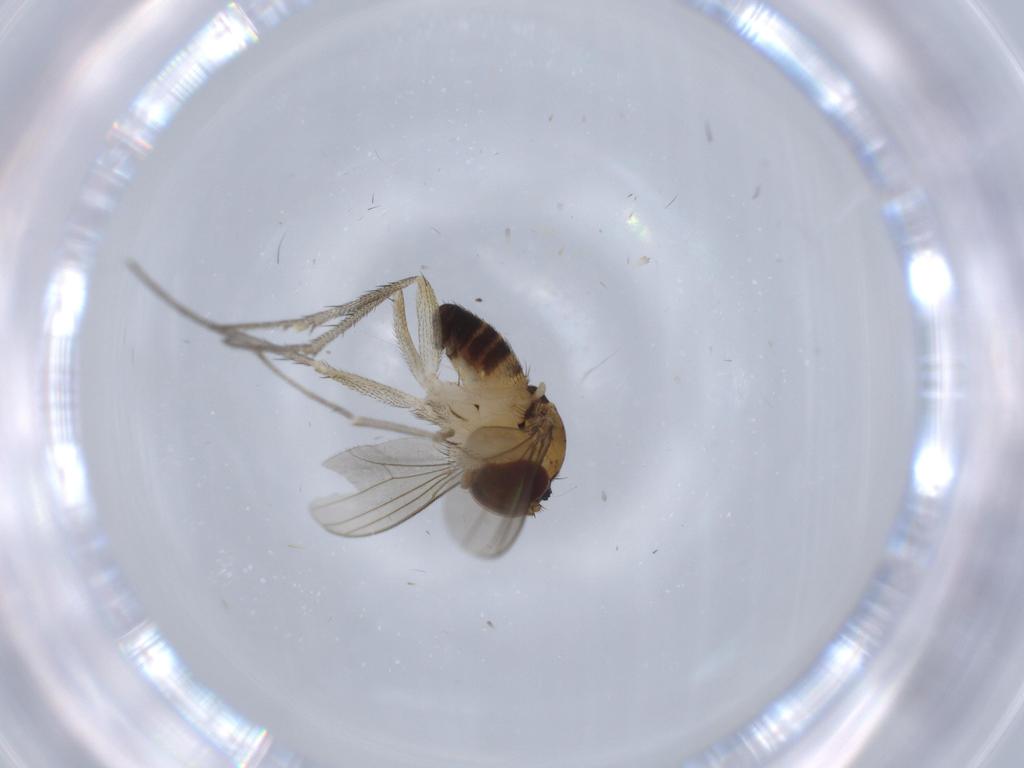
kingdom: Animalia
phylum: Arthropoda
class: Insecta
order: Diptera
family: Dolichopodidae
